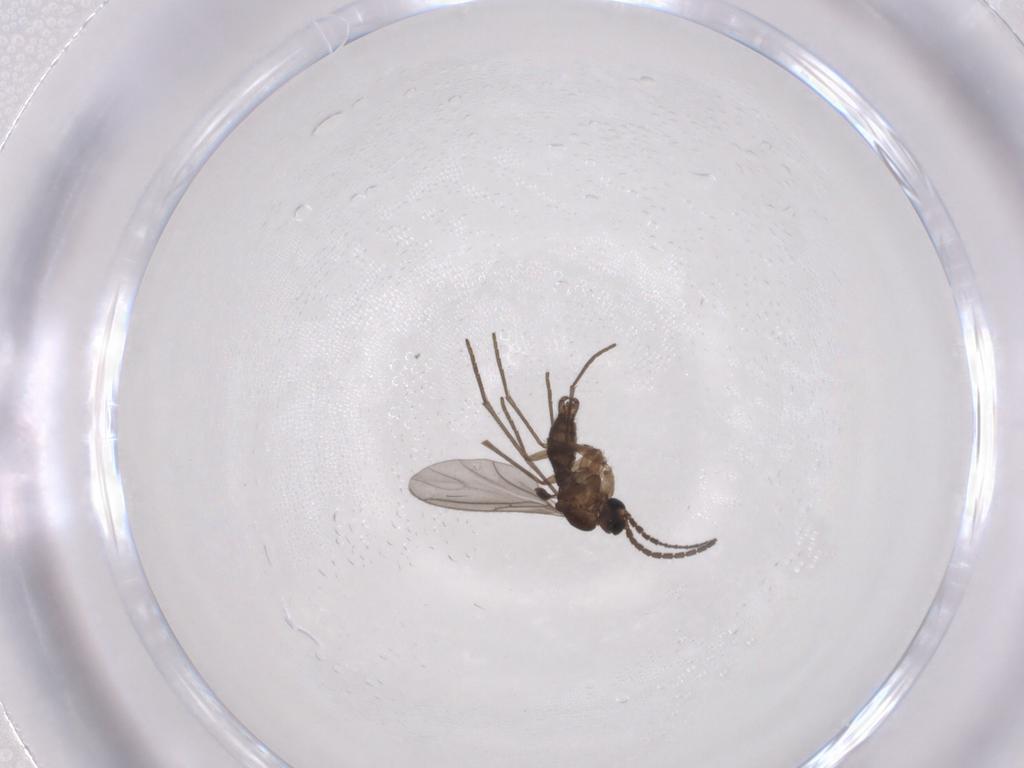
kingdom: Animalia
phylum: Arthropoda
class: Insecta
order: Diptera
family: Sciaridae
